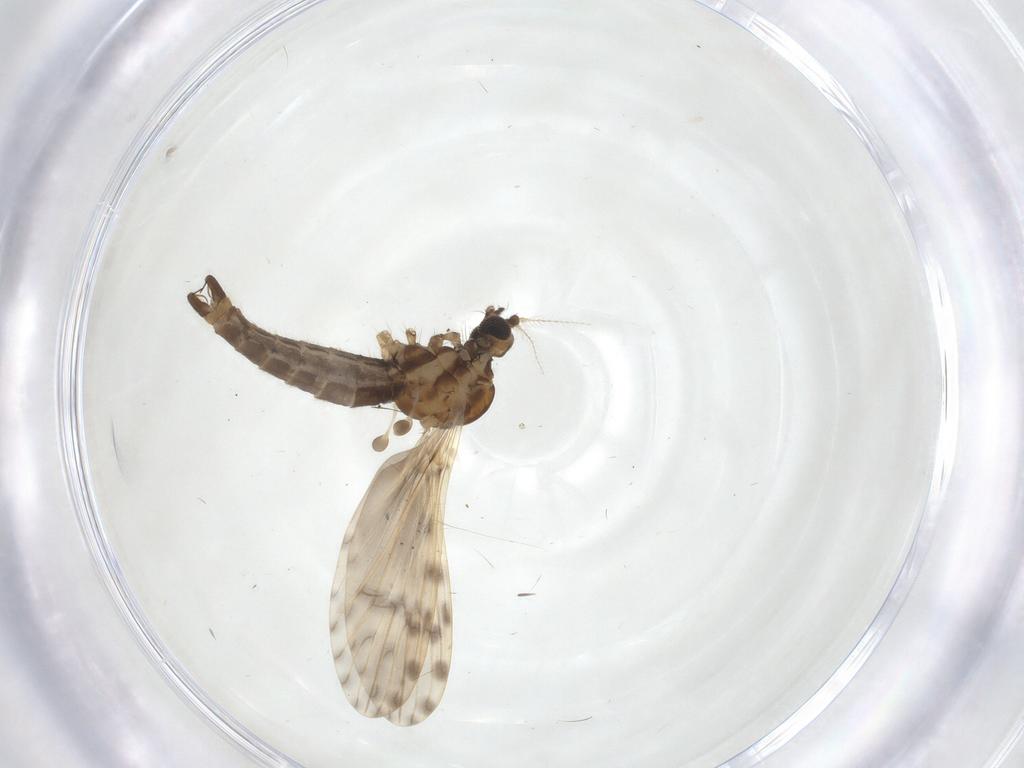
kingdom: Animalia
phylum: Arthropoda
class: Insecta
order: Diptera
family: Limoniidae
